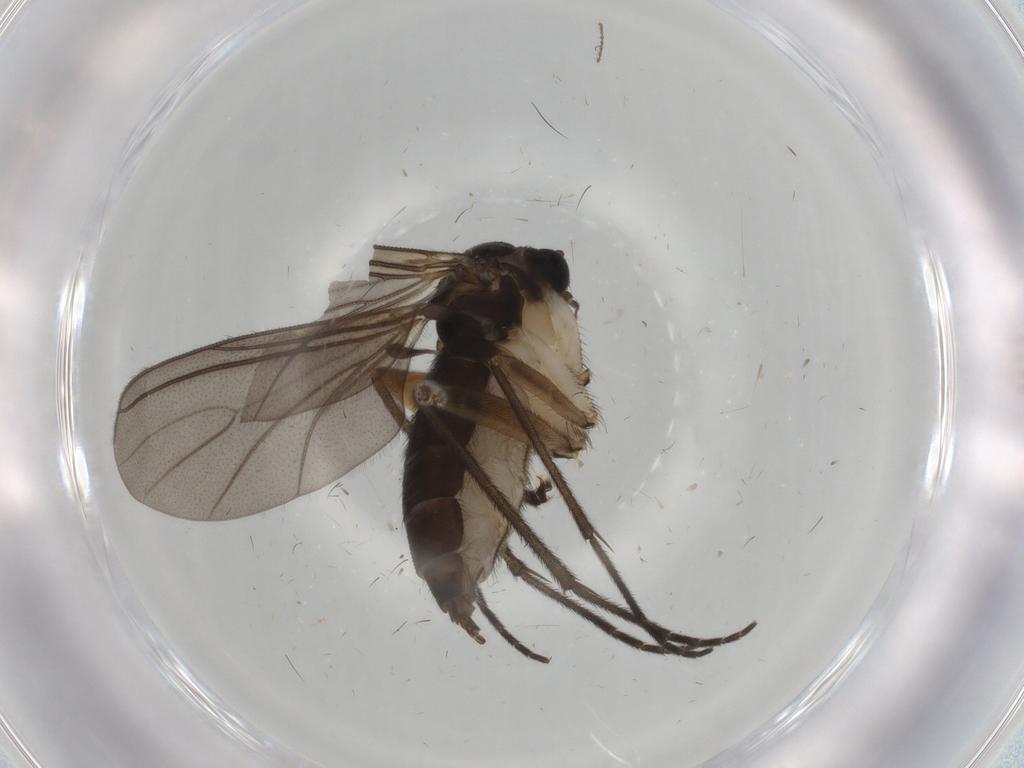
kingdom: Animalia
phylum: Arthropoda
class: Insecta
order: Diptera
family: Sciaridae
